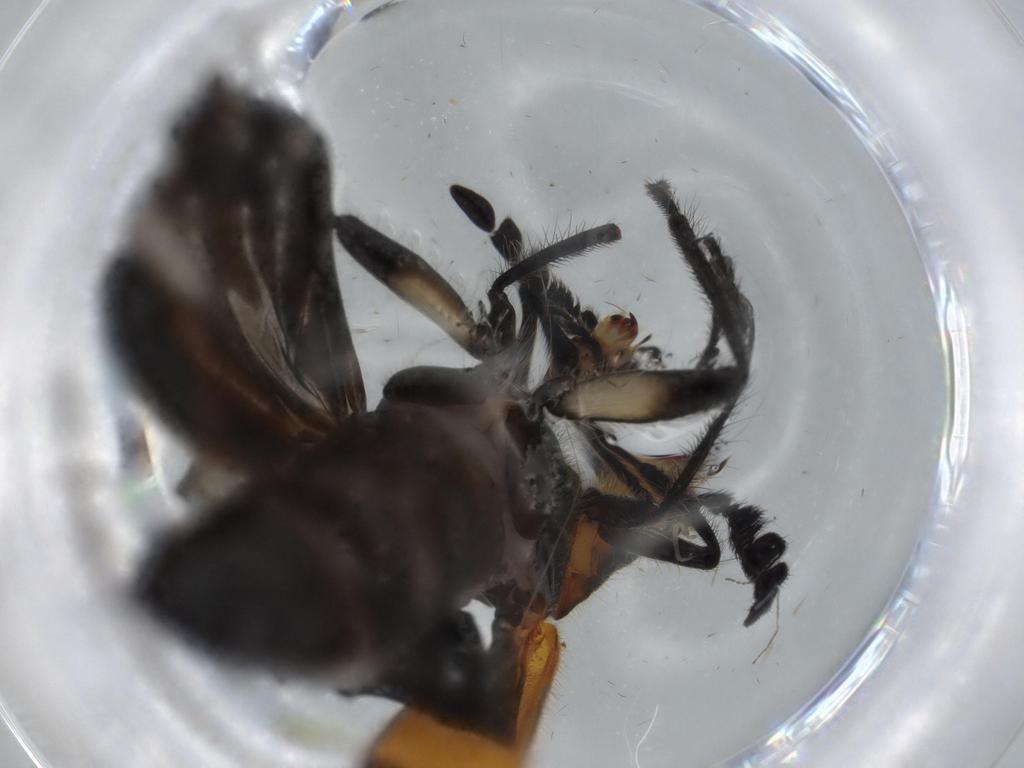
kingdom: Animalia
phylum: Arthropoda
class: Insecta
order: Coleoptera
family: Cleridae
